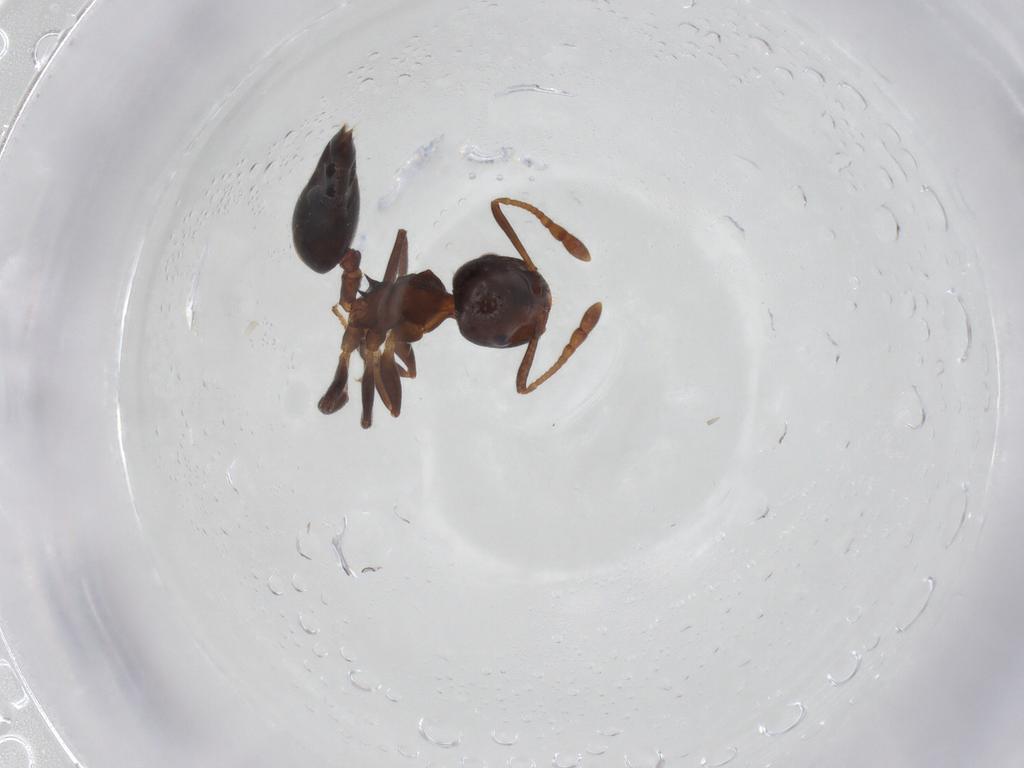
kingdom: Animalia
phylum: Arthropoda
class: Insecta
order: Hymenoptera
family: Formicidae
